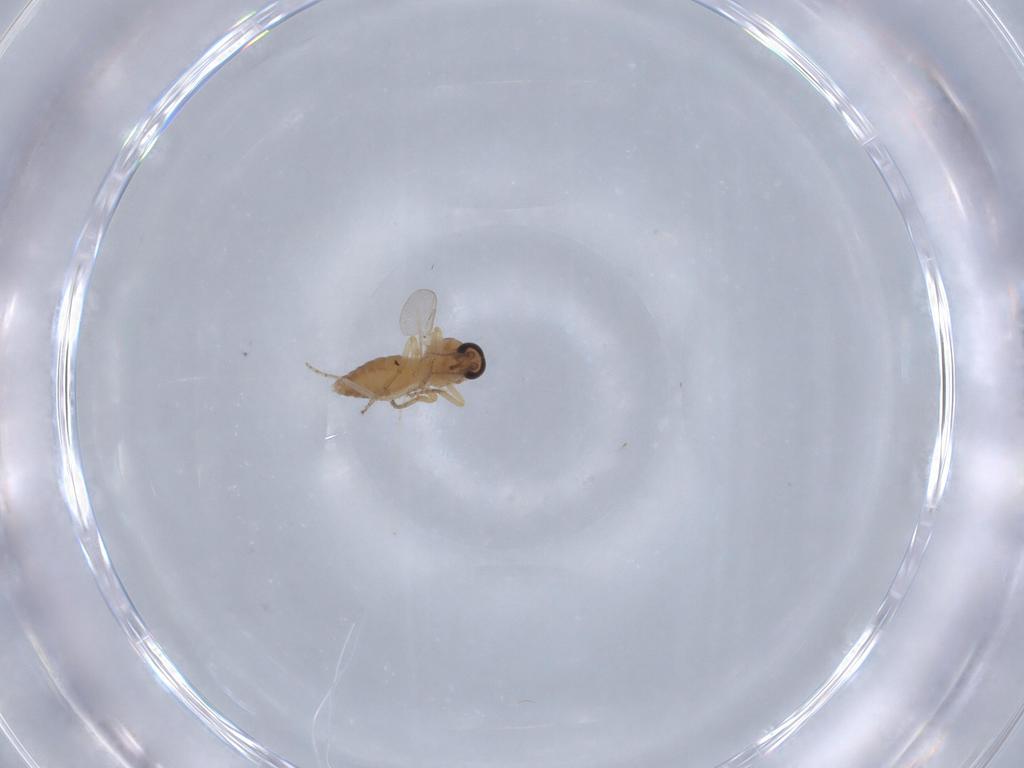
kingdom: Animalia
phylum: Arthropoda
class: Insecta
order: Diptera
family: Ceratopogonidae
